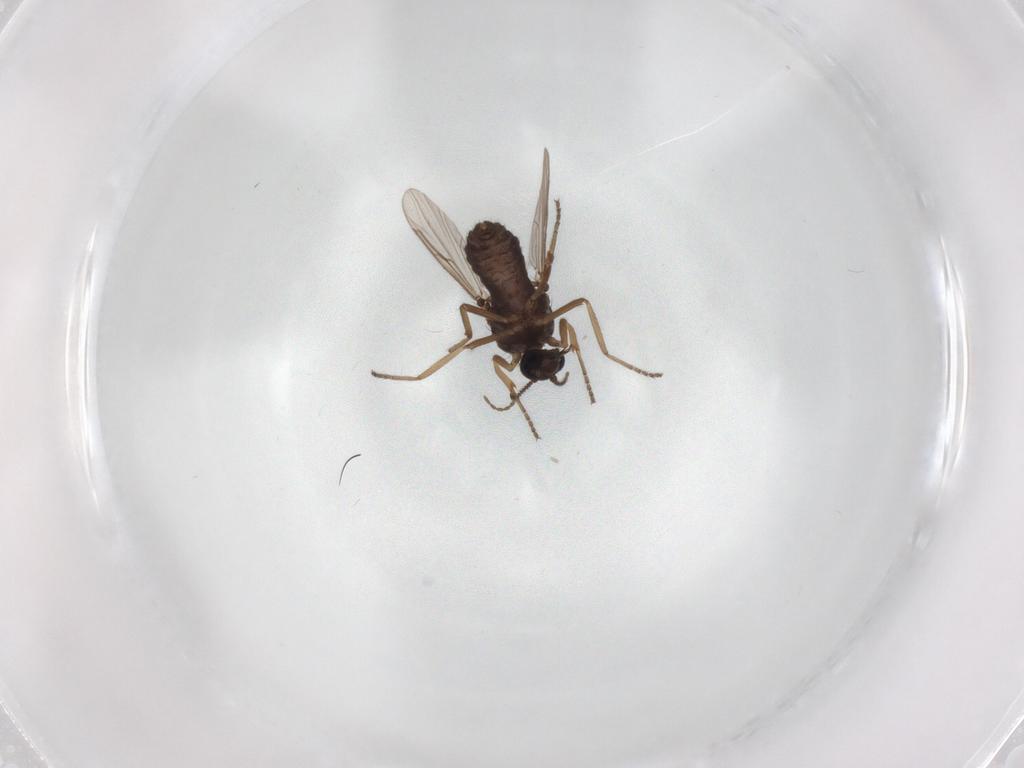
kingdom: Animalia
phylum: Arthropoda
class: Insecta
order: Diptera
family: Ceratopogonidae
